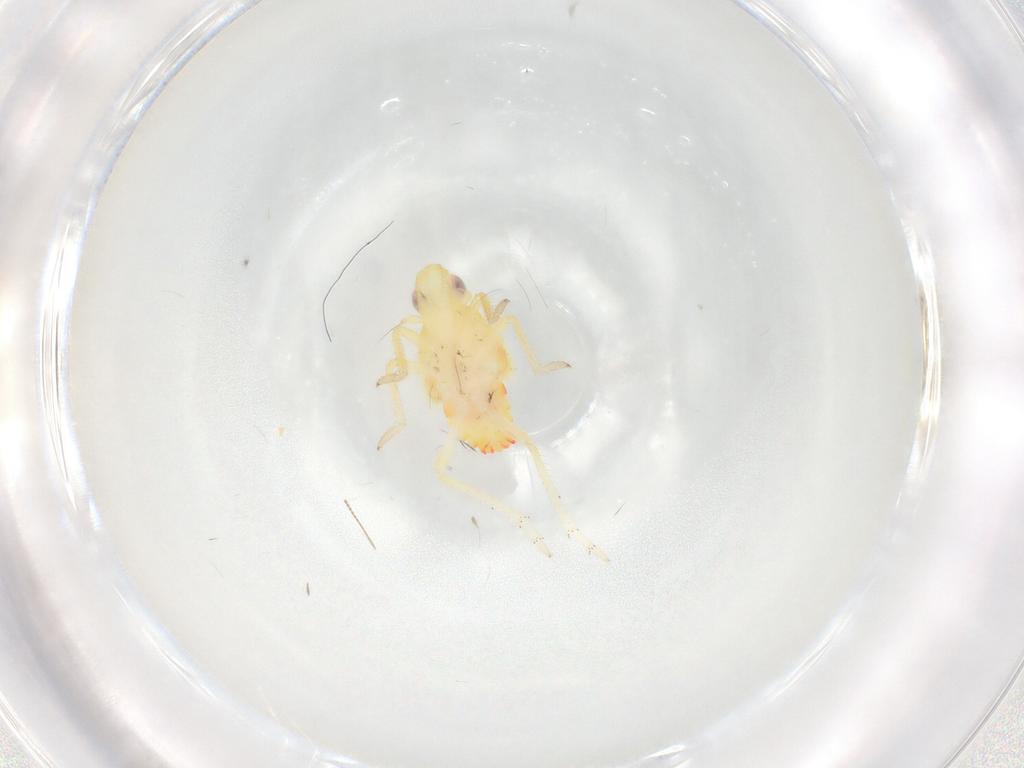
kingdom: Animalia
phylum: Arthropoda
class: Insecta
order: Hemiptera
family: Tropiduchidae
